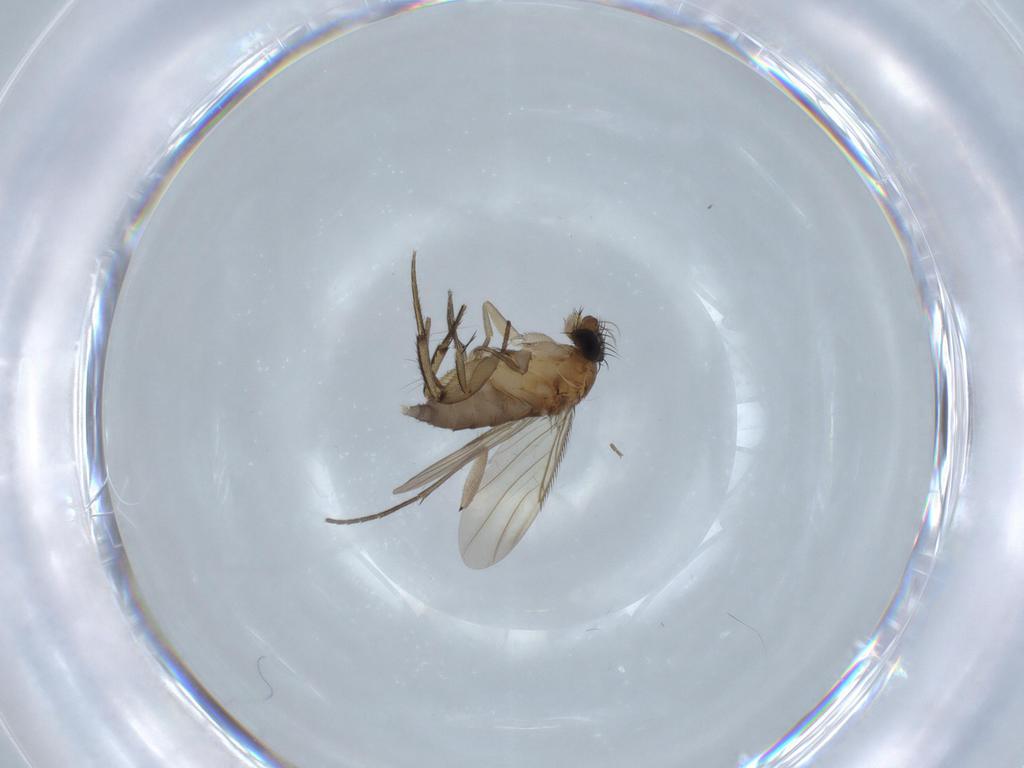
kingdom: Animalia
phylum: Arthropoda
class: Insecta
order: Diptera
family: Phoridae
